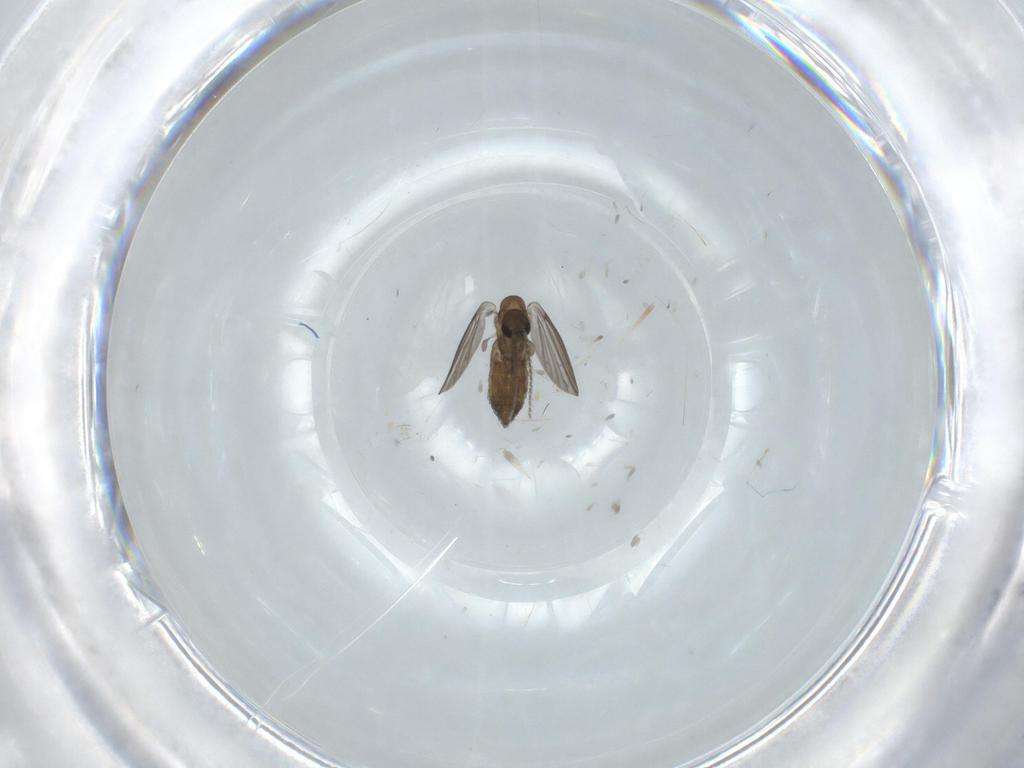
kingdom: Animalia
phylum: Arthropoda
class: Insecta
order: Diptera
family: Psychodidae
